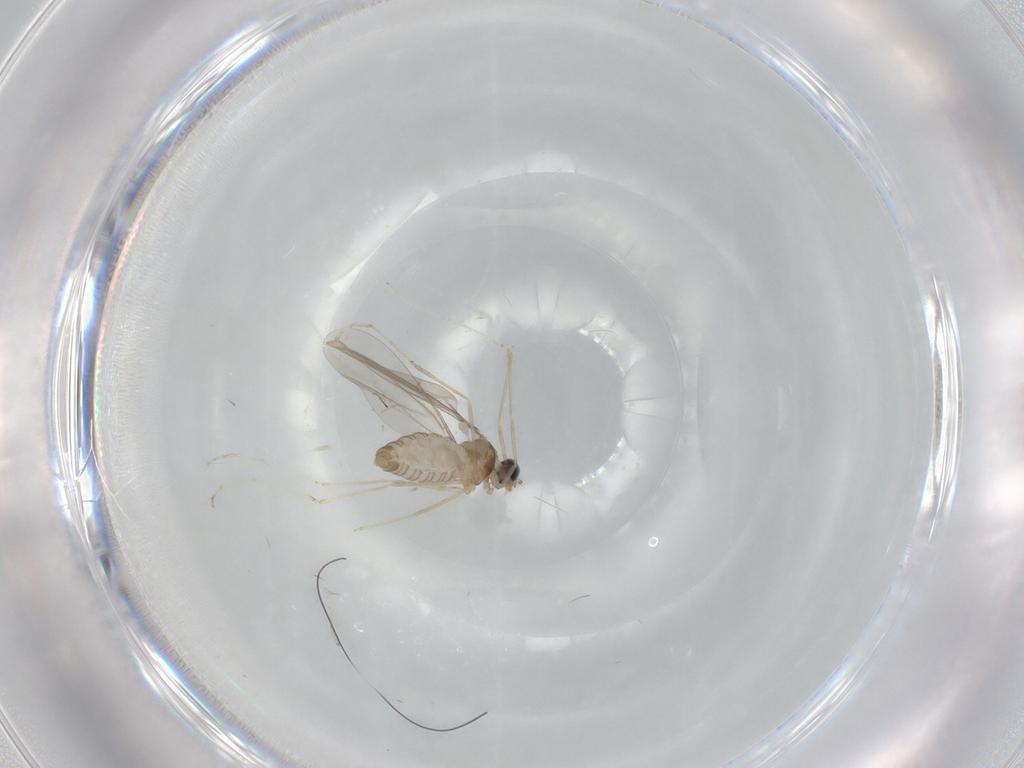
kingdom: Animalia
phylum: Arthropoda
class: Insecta
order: Diptera
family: Cecidomyiidae
